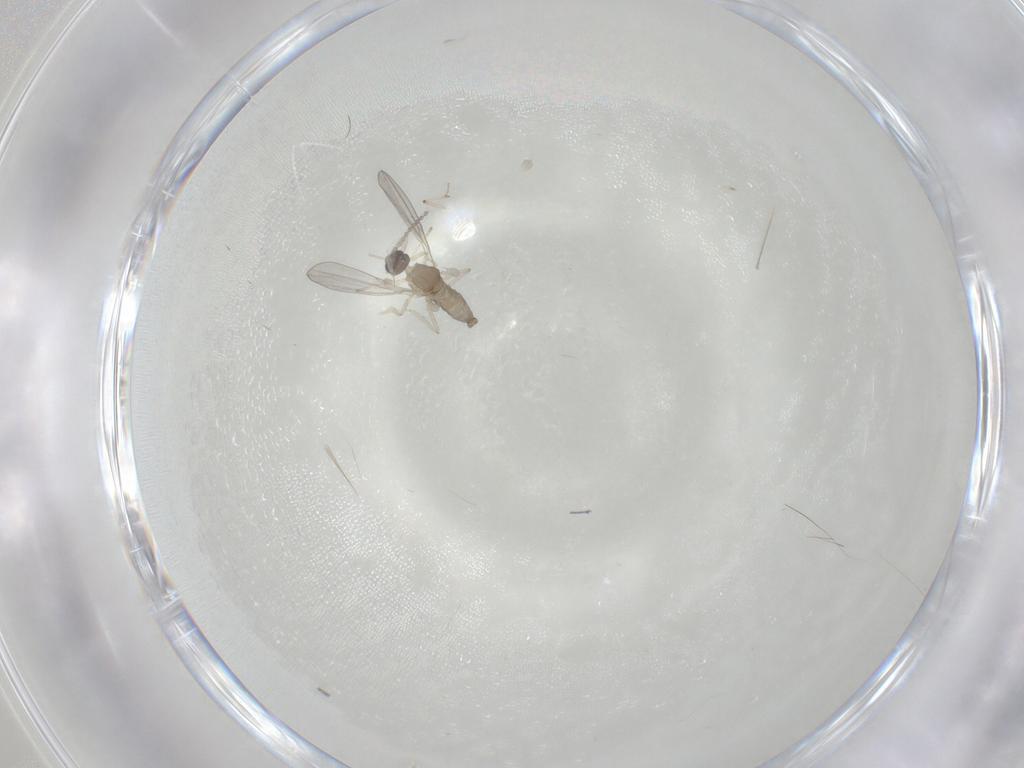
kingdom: Animalia
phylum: Arthropoda
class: Insecta
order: Diptera
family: Cecidomyiidae
